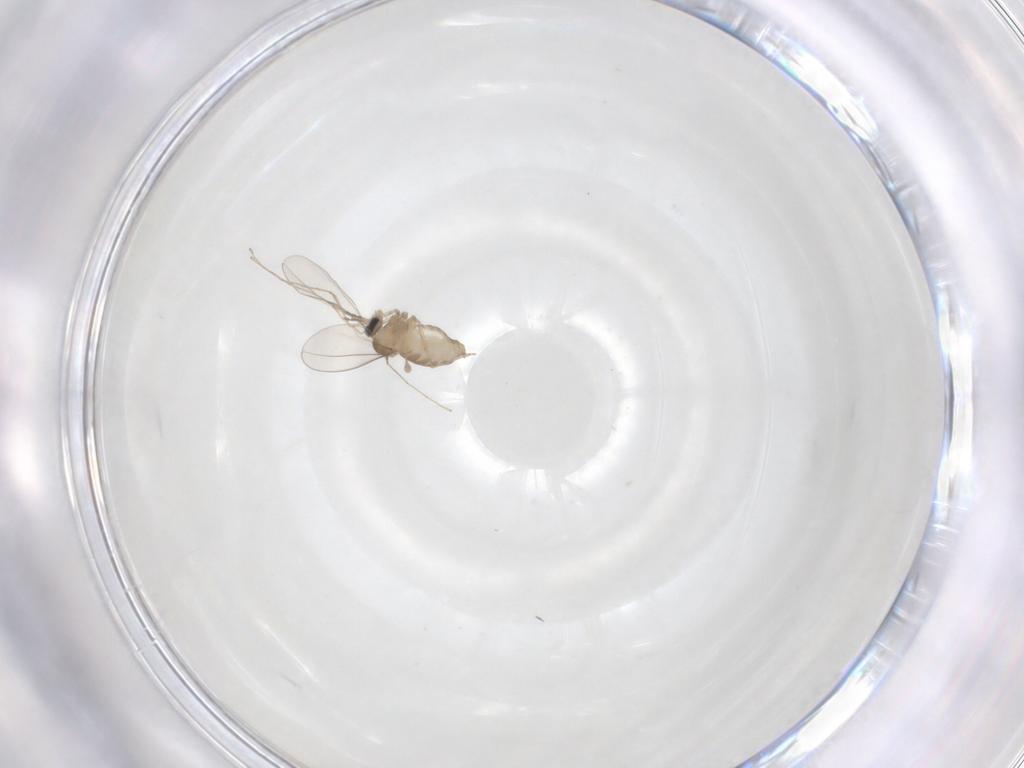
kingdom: Animalia
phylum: Arthropoda
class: Insecta
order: Diptera
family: Cecidomyiidae
